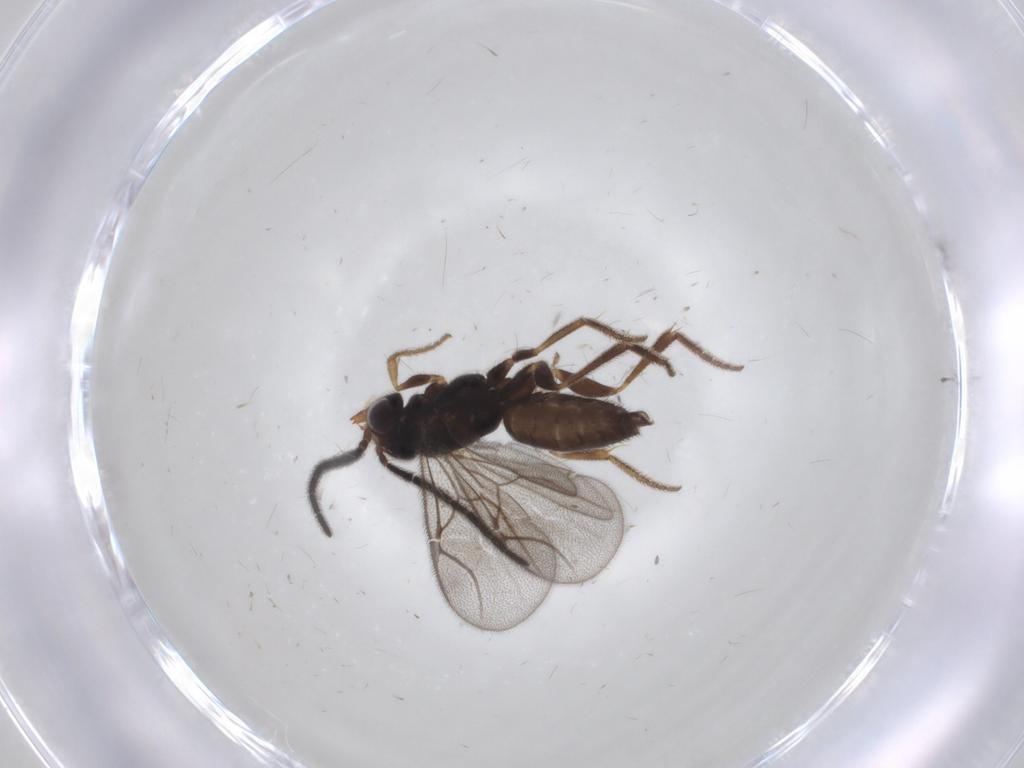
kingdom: Animalia
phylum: Arthropoda
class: Insecta
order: Hymenoptera
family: Dryinidae
